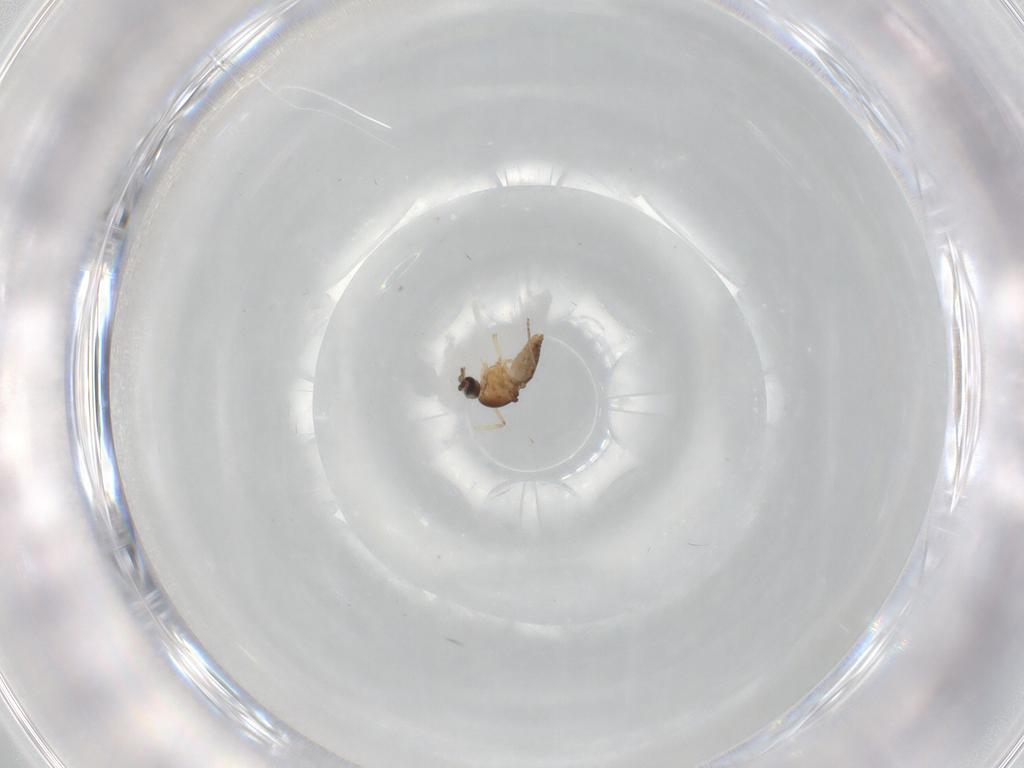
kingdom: Animalia
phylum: Arthropoda
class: Insecta
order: Diptera
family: Ceratopogonidae
